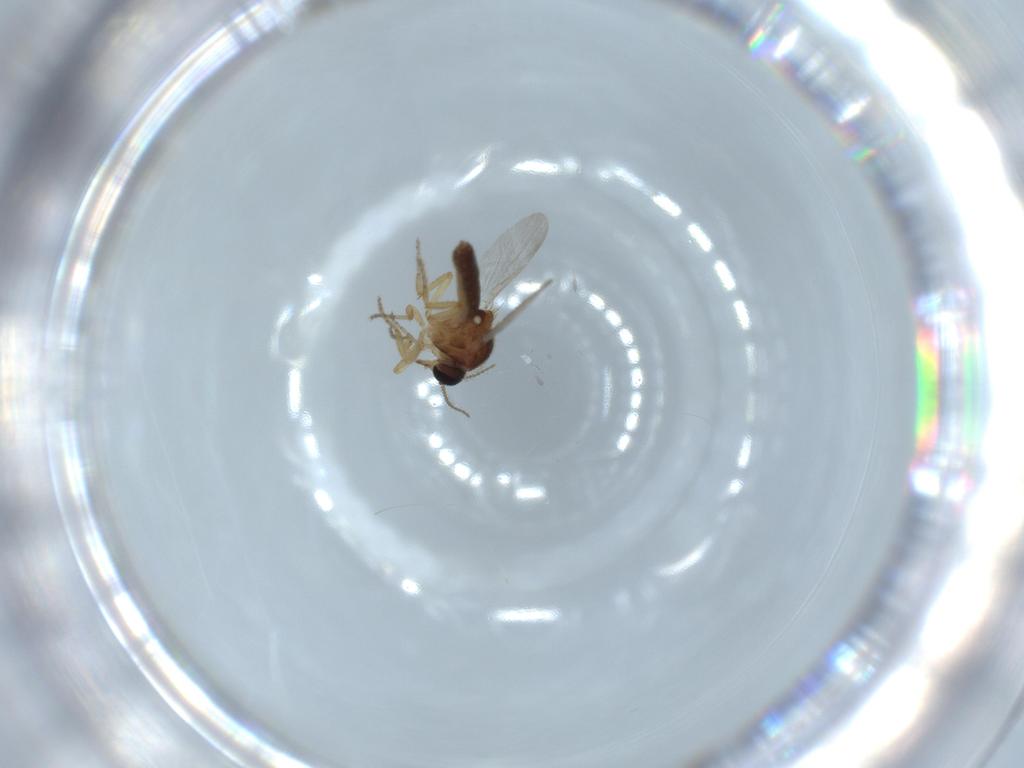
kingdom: Animalia
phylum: Arthropoda
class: Insecta
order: Diptera
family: Ceratopogonidae
